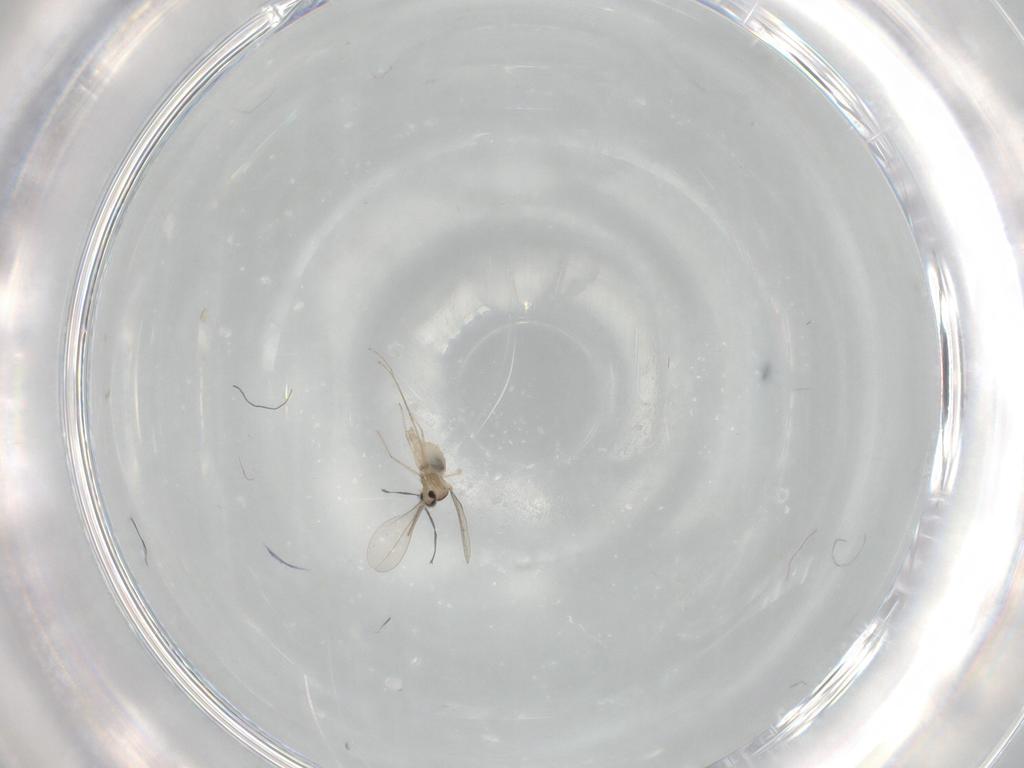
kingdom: Animalia
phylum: Arthropoda
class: Insecta
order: Diptera
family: Cecidomyiidae
